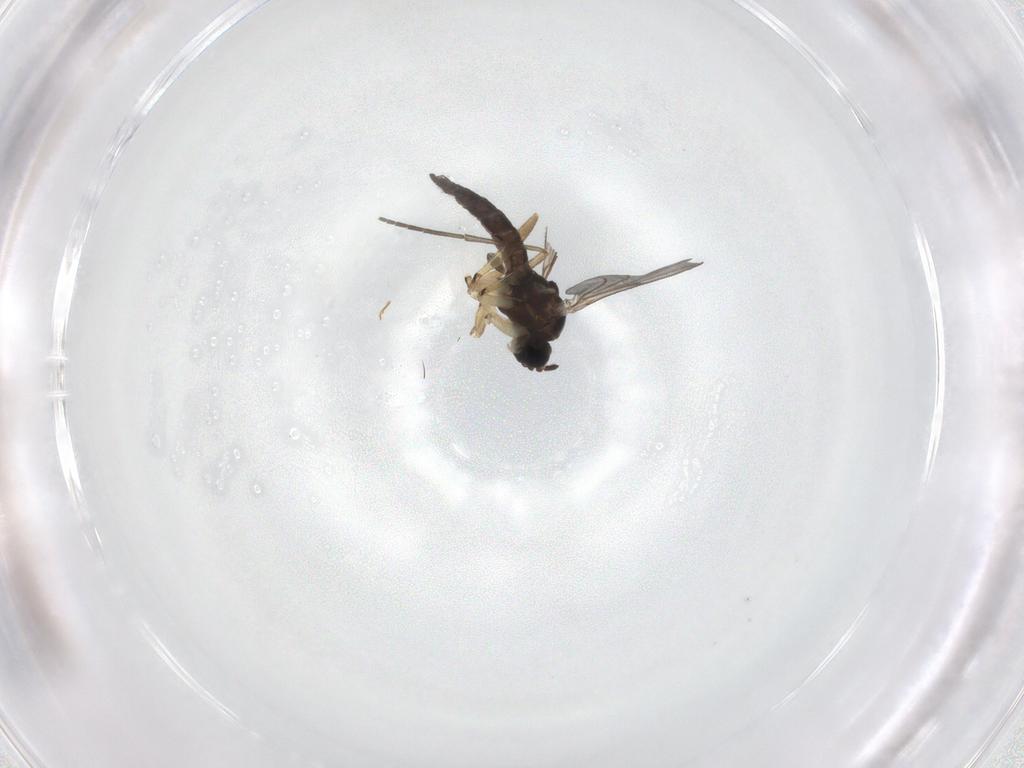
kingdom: Animalia
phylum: Arthropoda
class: Insecta
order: Diptera
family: Sciaridae
